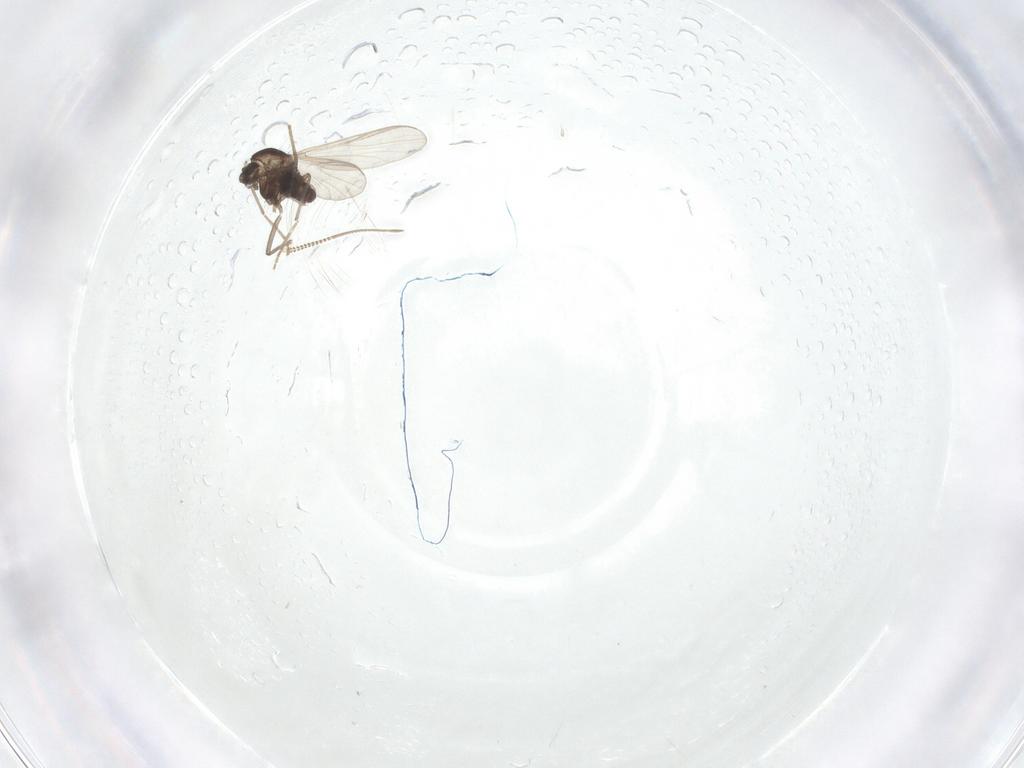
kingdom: Animalia
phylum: Arthropoda
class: Insecta
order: Diptera
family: Chironomidae
